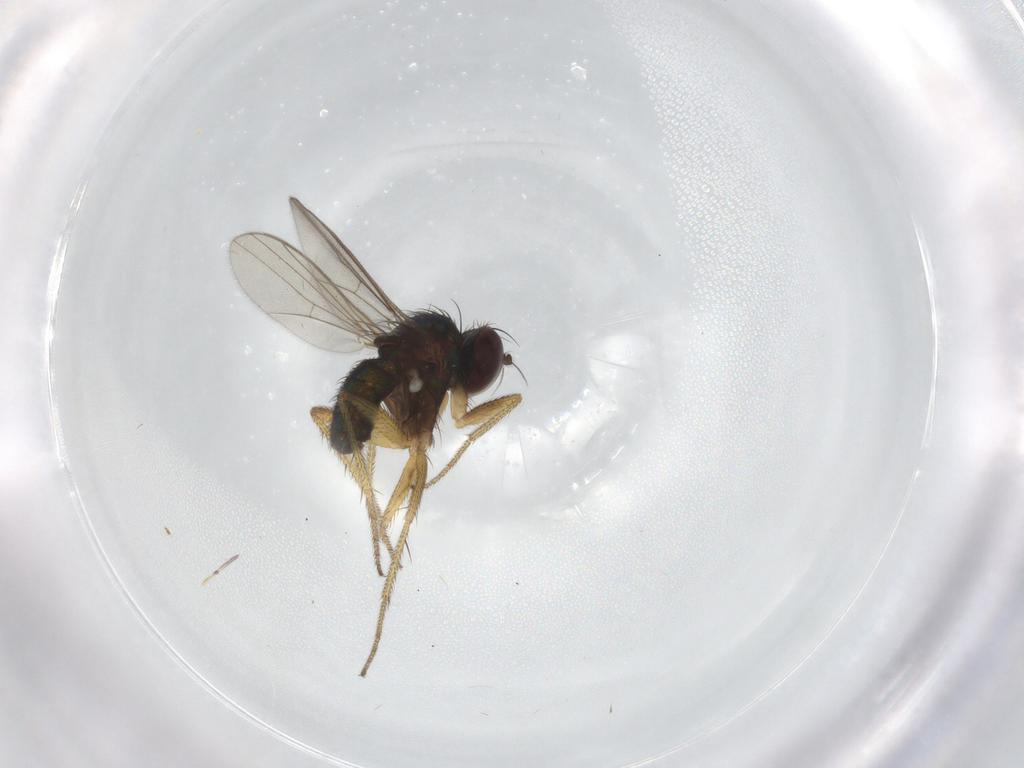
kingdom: Animalia
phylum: Arthropoda
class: Insecta
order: Diptera
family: Dolichopodidae
